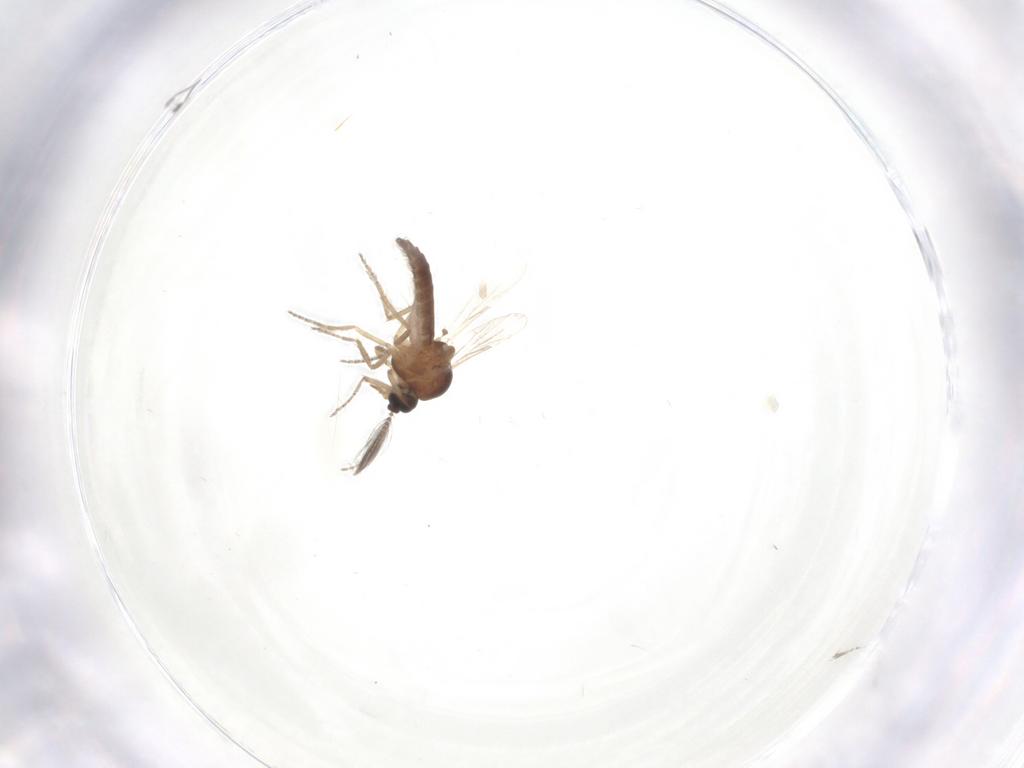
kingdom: Animalia
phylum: Arthropoda
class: Insecta
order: Diptera
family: Ceratopogonidae
